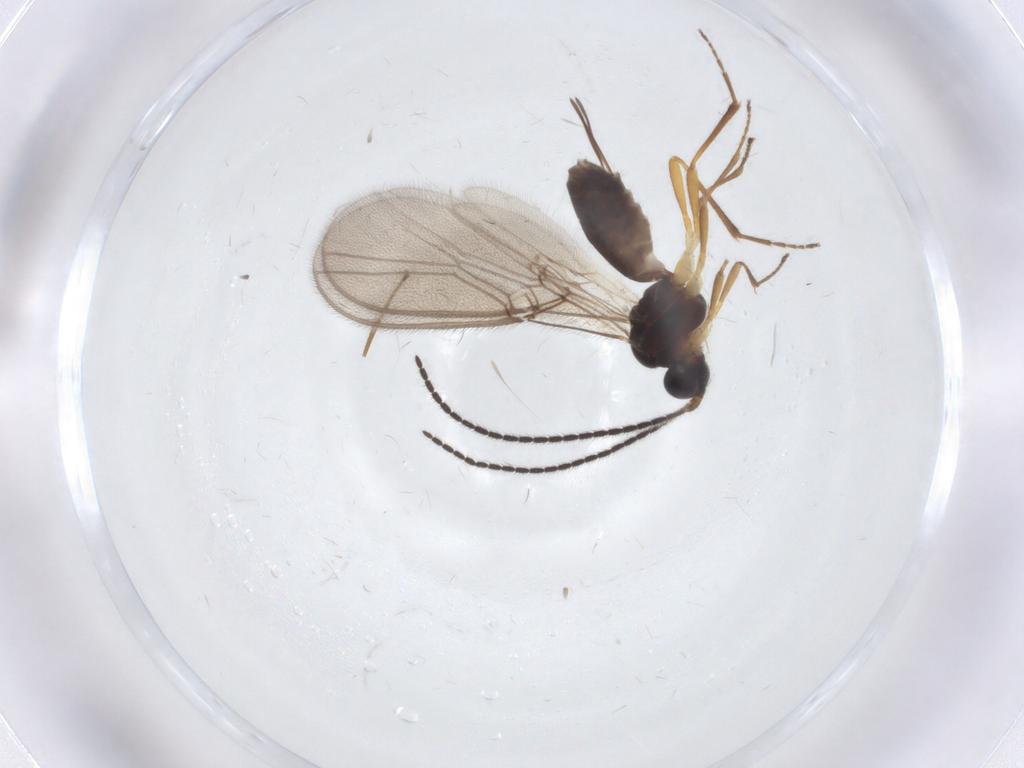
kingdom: Animalia
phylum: Arthropoda
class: Insecta
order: Hymenoptera
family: Braconidae
